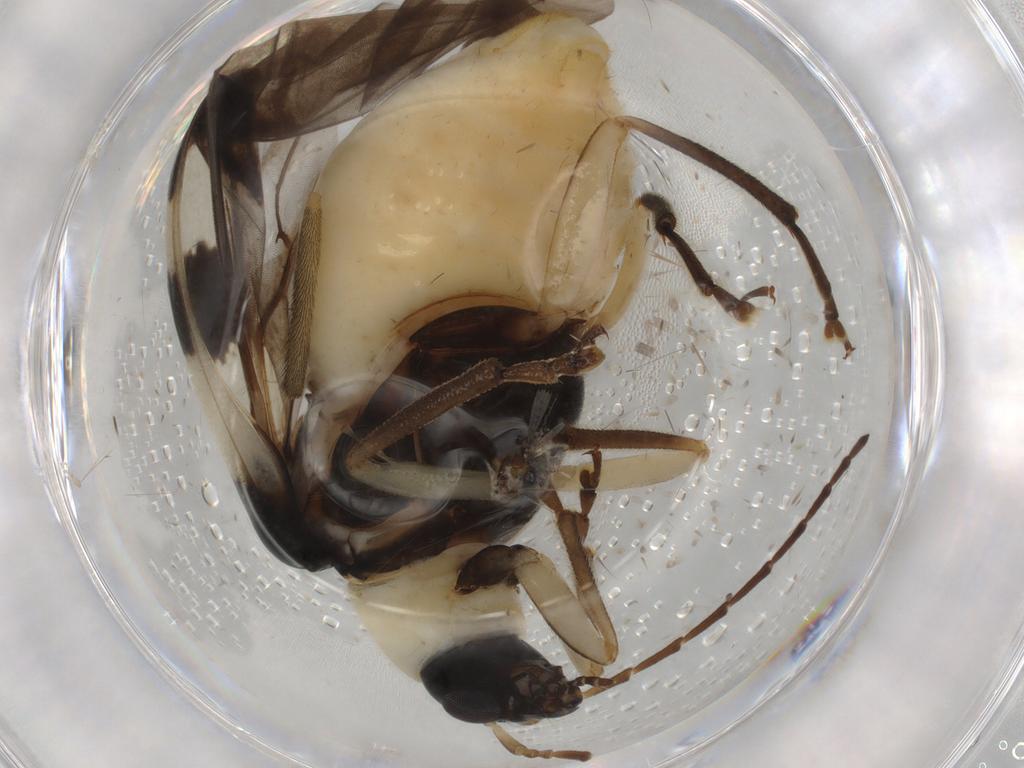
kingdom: Animalia
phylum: Arthropoda
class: Insecta
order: Coleoptera
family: Chrysomelidae
